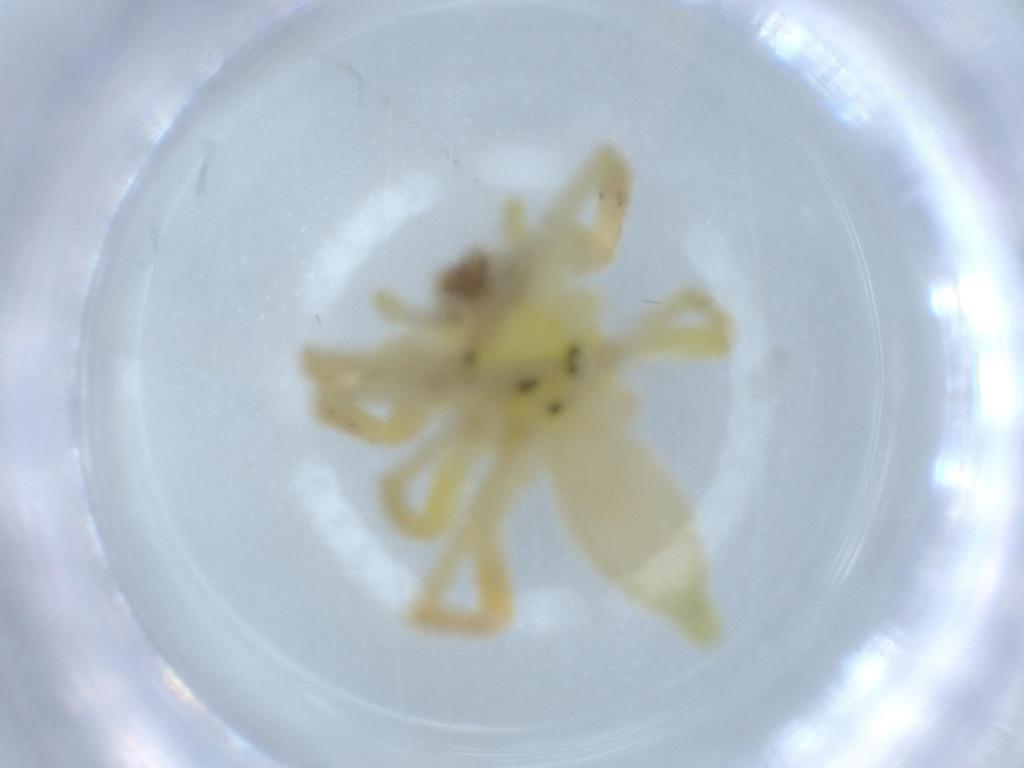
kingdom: Animalia
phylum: Arthropoda
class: Arachnida
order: Araneae
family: Anyphaenidae
